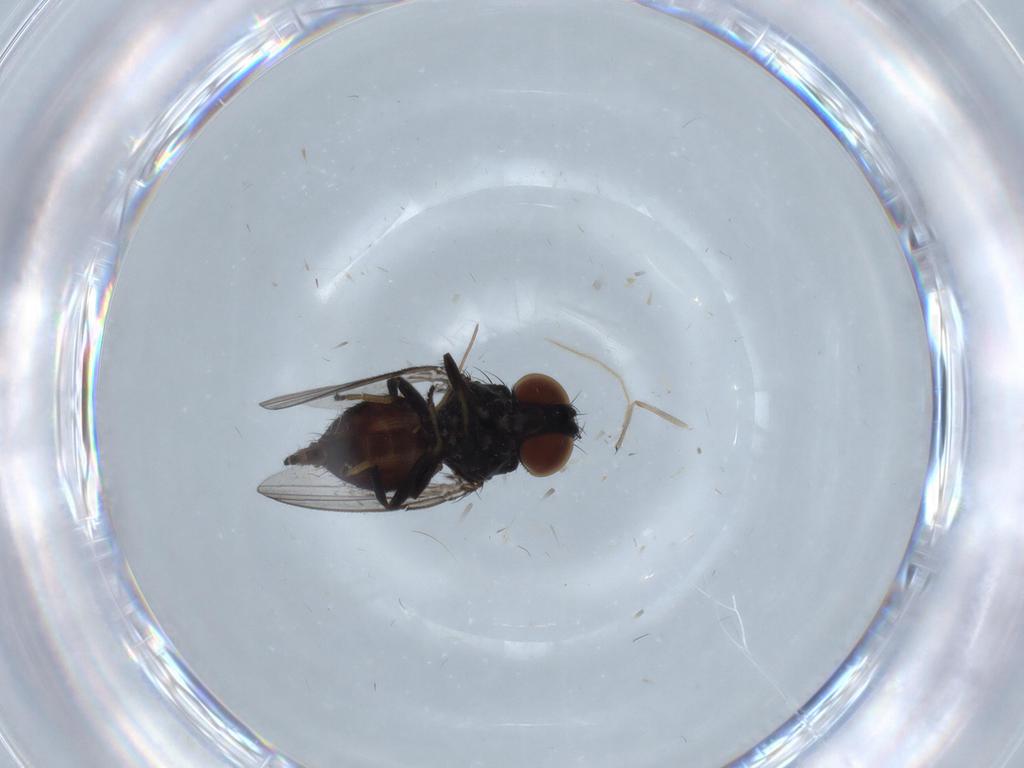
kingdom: Animalia
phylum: Arthropoda
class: Insecta
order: Diptera
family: Milichiidae
